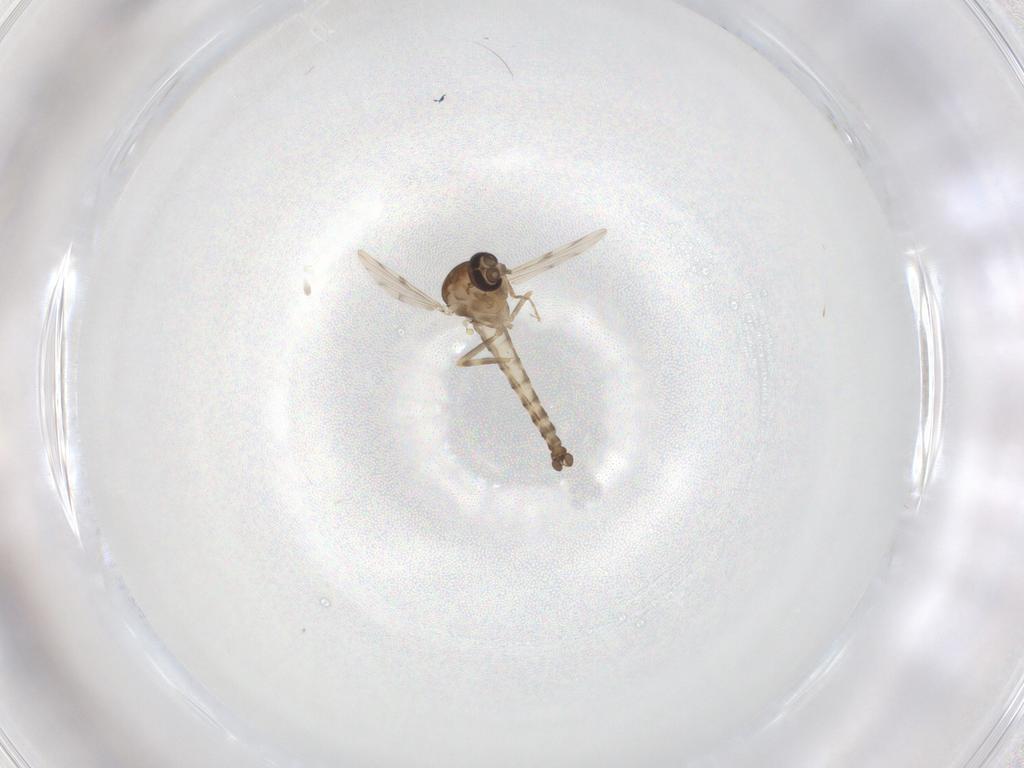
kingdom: Animalia
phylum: Arthropoda
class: Insecta
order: Diptera
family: Ceratopogonidae
